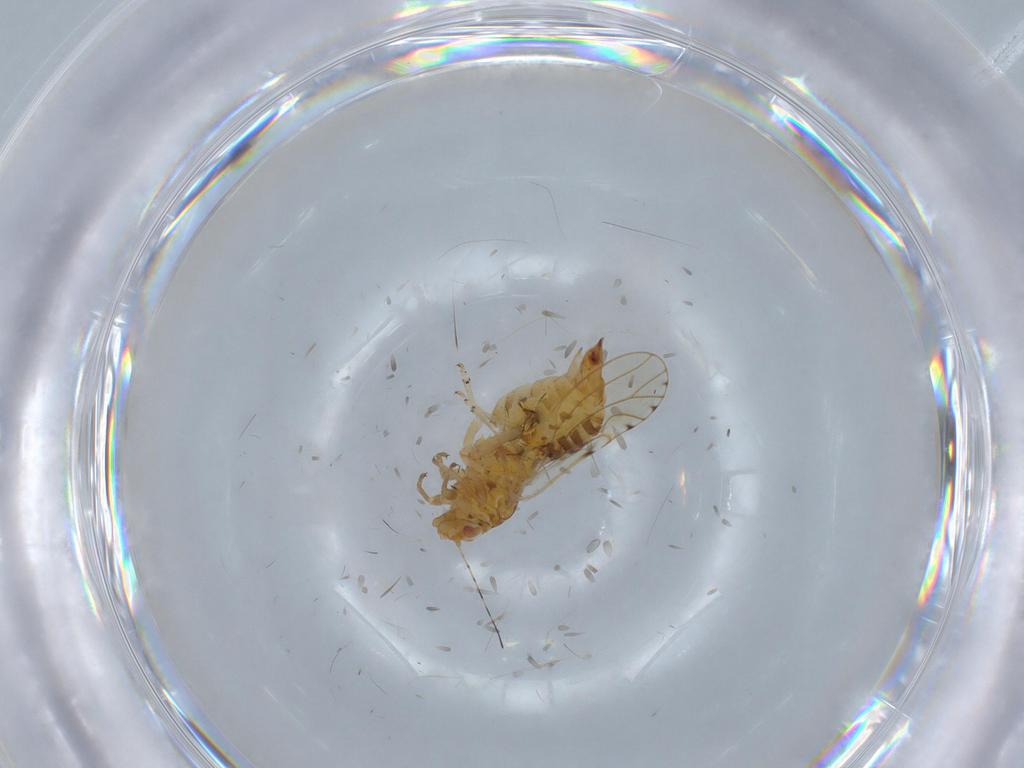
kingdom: Animalia
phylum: Arthropoda
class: Insecta
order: Hemiptera
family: Psylloidea_incertae_sedis
